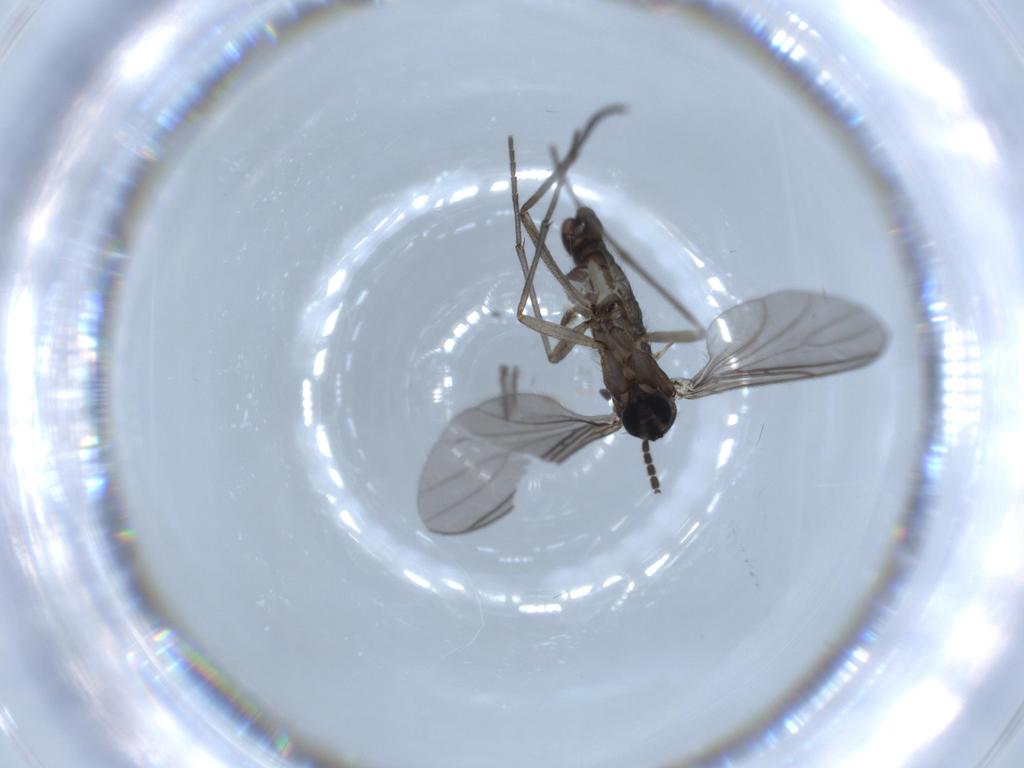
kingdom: Animalia
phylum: Arthropoda
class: Insecta
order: Diptera
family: Sciaridae
